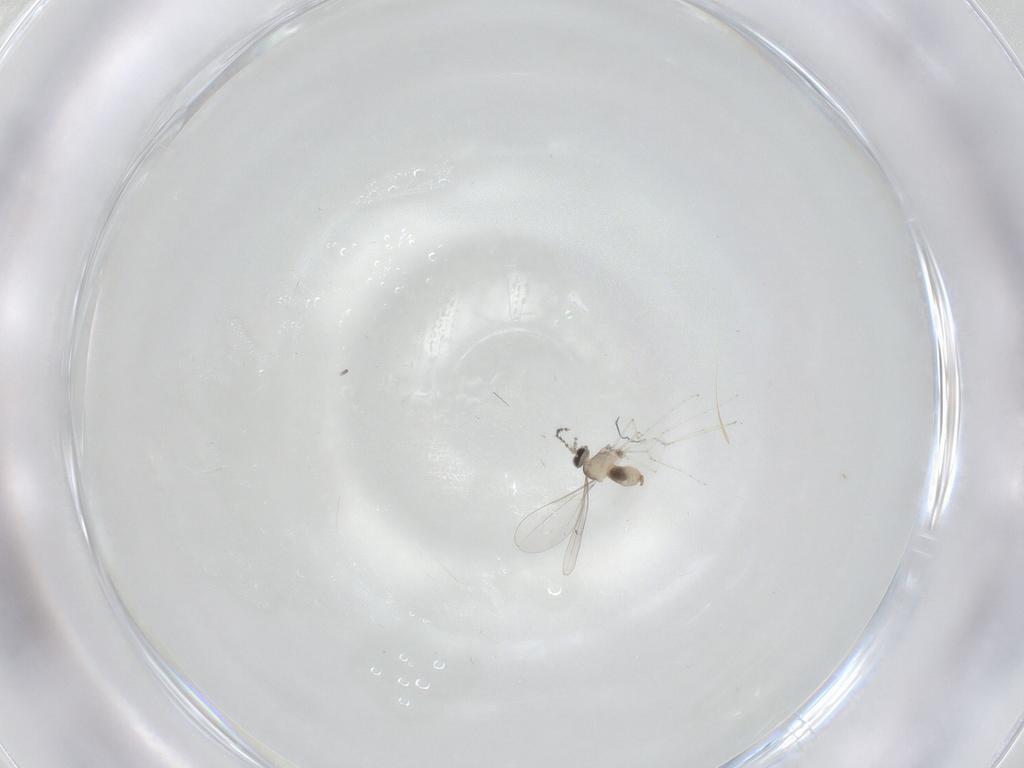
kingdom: Animalia
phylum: Arthropoda
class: Insecta
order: Diptera
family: Cecidomyiidae
